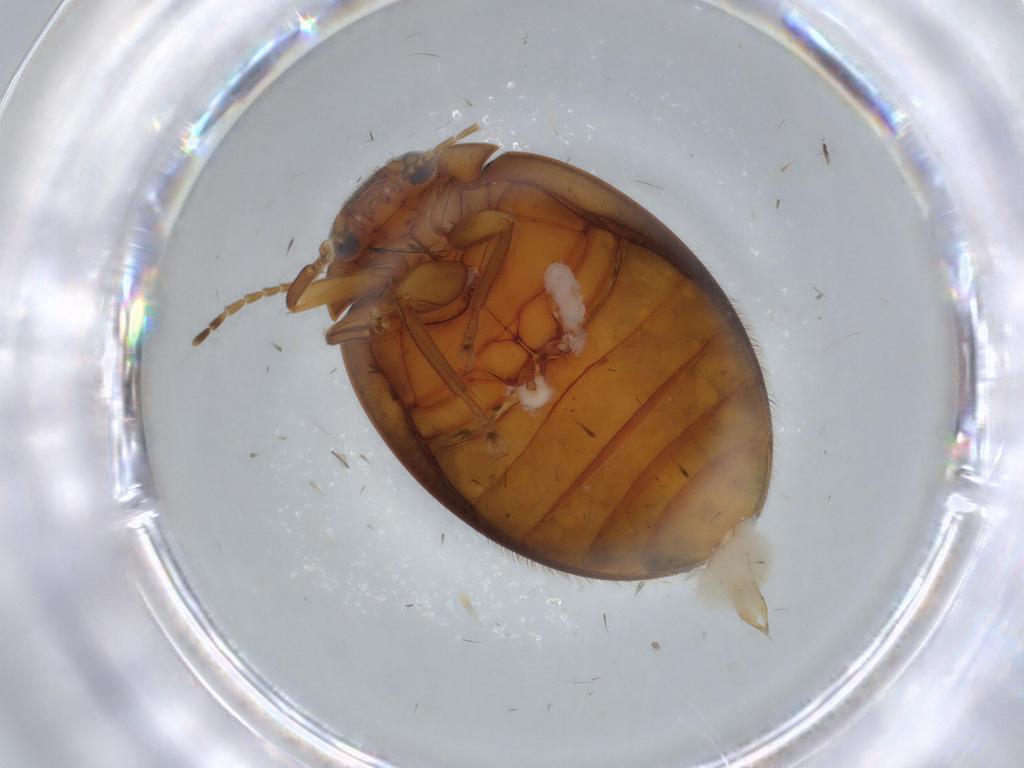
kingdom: Animalia
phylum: Arthropoda
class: Insecta
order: Coleoptera
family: Scirtidae
